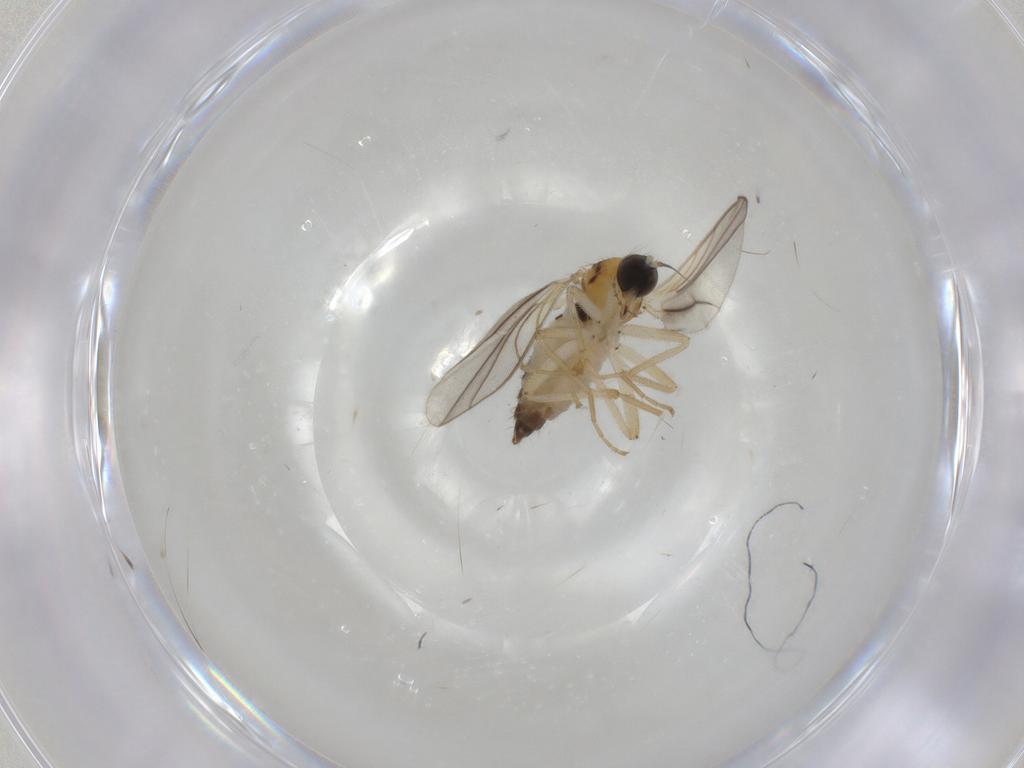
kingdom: Animalia
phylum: Arthropoda
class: Insecta
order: Diptera
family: Hybotidae
